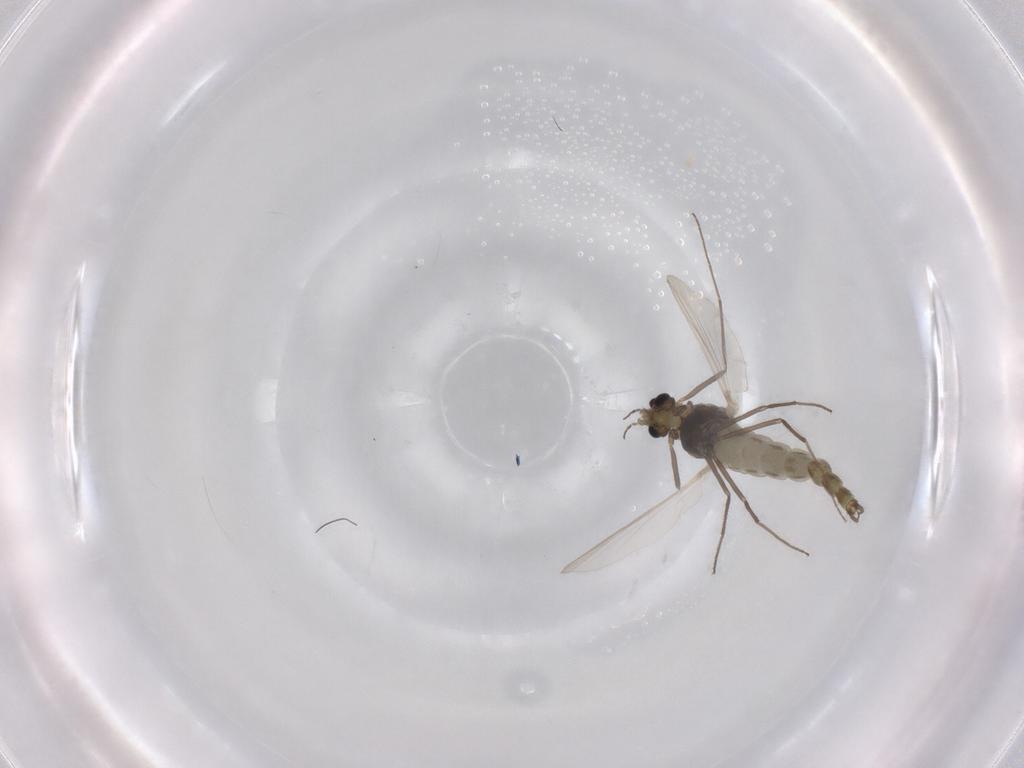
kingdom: Animalia
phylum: Arthropoda
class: Insecta
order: Diptera
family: Chironomidae
